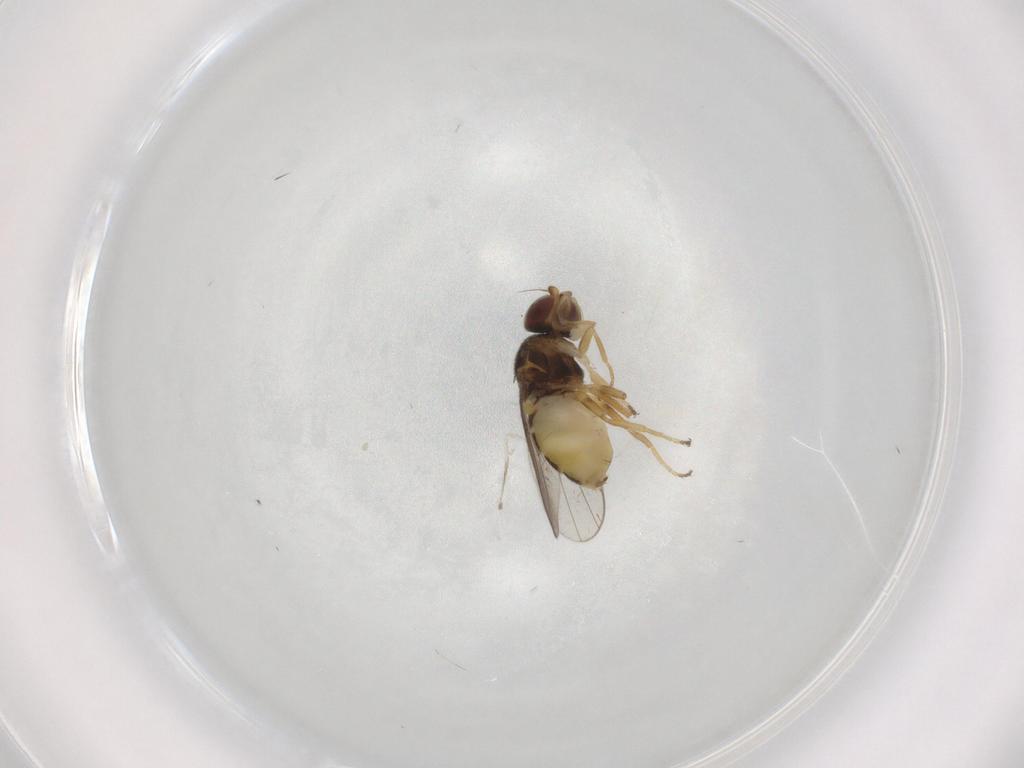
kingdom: Animalia
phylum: Arthropoda
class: Insecta
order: Diptera
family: Chloropidae
